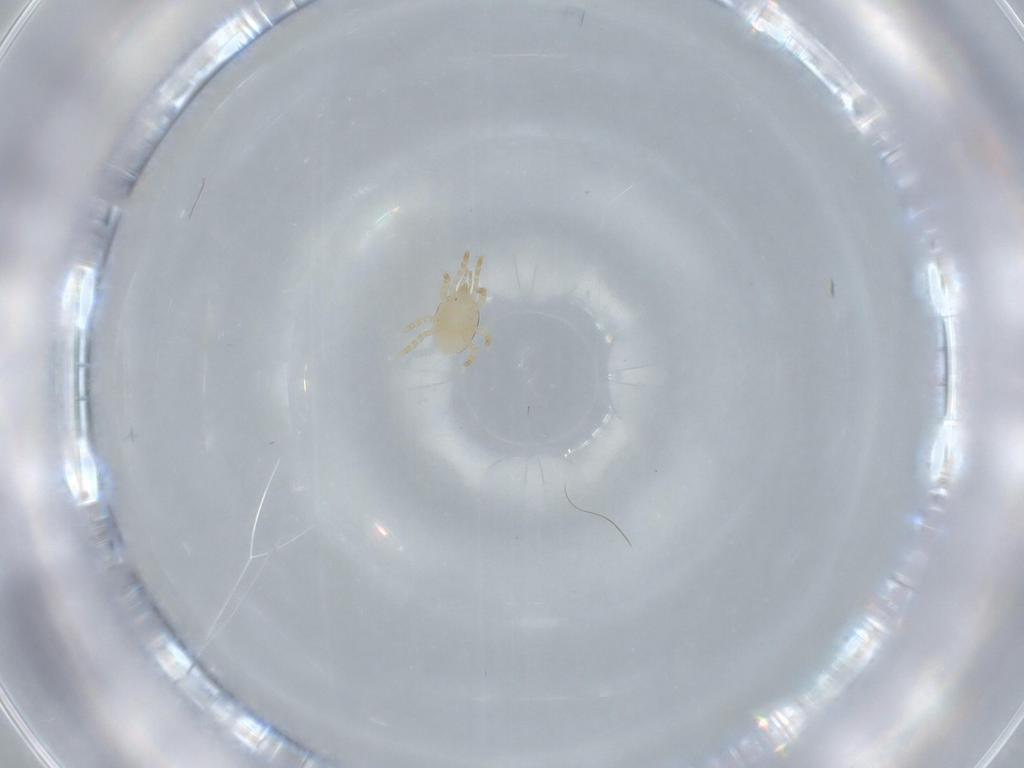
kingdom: Animalia
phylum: Arthropoda
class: Arachnida
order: Mesostigmata
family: Laelapidae
